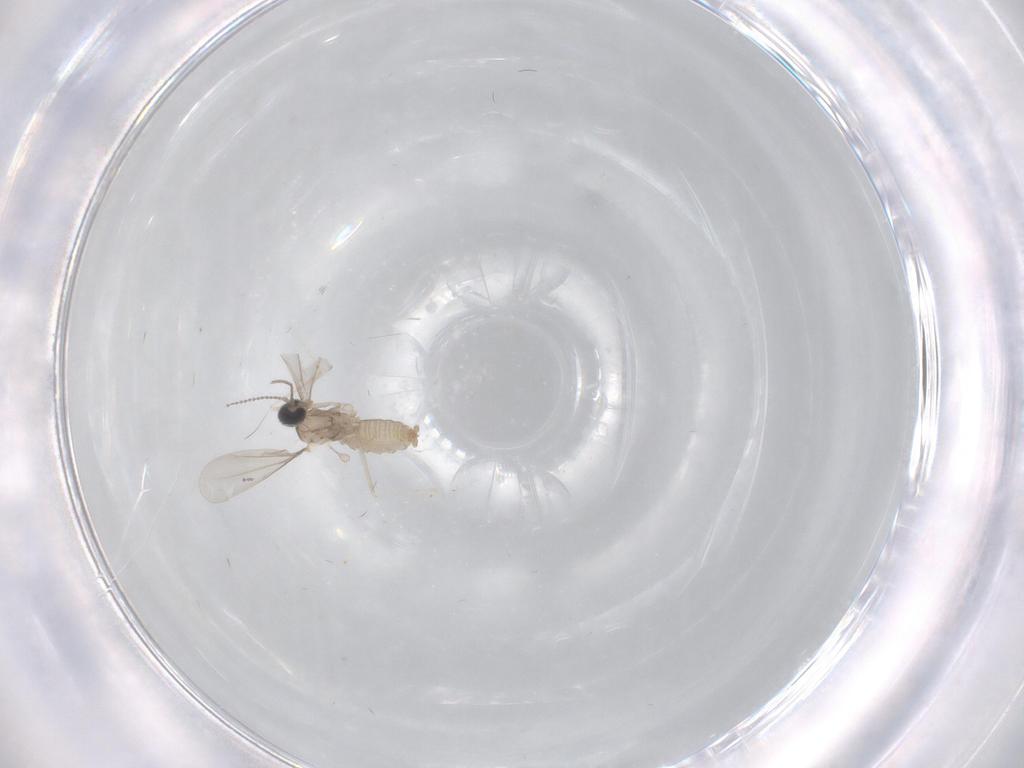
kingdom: Animalia
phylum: Arthropoda
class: Insecta
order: Diptera
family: Cecidomyiidae
